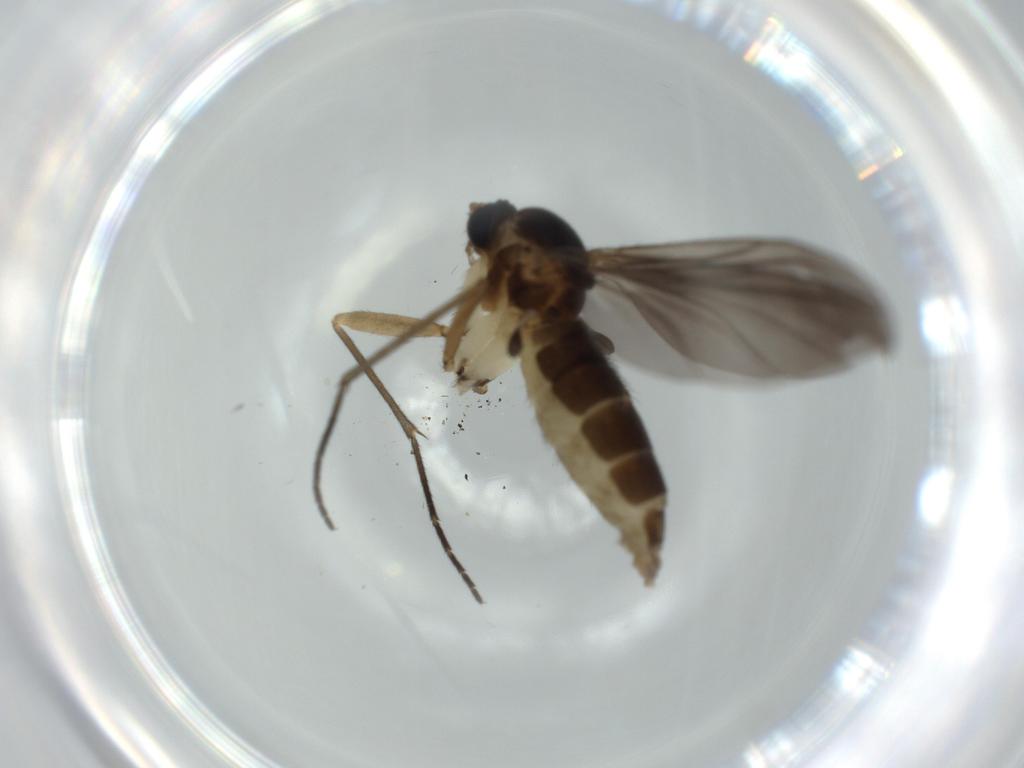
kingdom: Animalia
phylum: Arthropoda
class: Insecta
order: Diptera
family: Sciaridae
